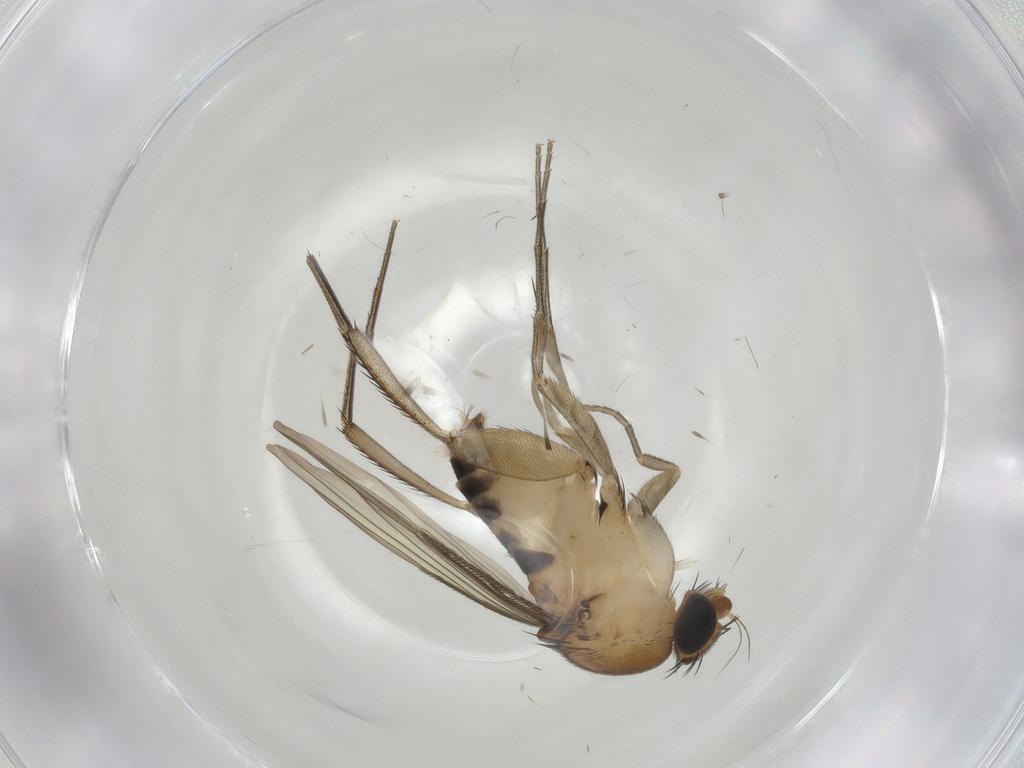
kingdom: Animalia
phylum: Arthropoda
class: Insecta
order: Diptera
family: Phoridae
